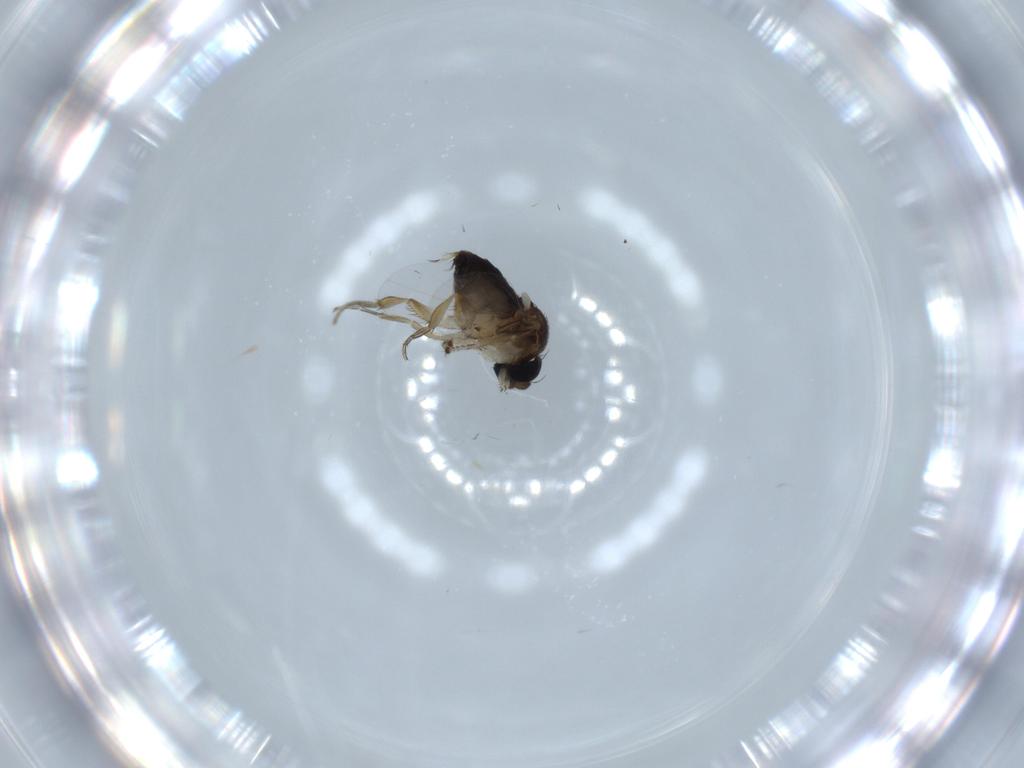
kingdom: Animalia
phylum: Arthropoda
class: Insecta
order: Diptera
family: Phoridae
